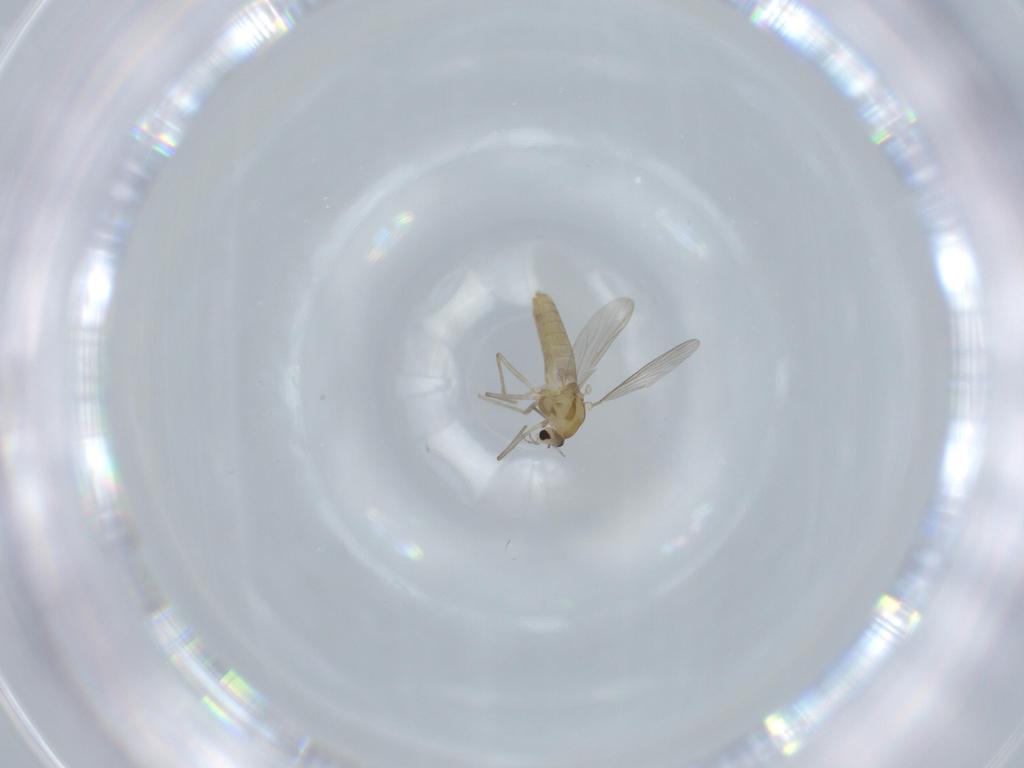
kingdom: Animalia
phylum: Arthropoda
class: Insecta
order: Diptera
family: Chironomidae
